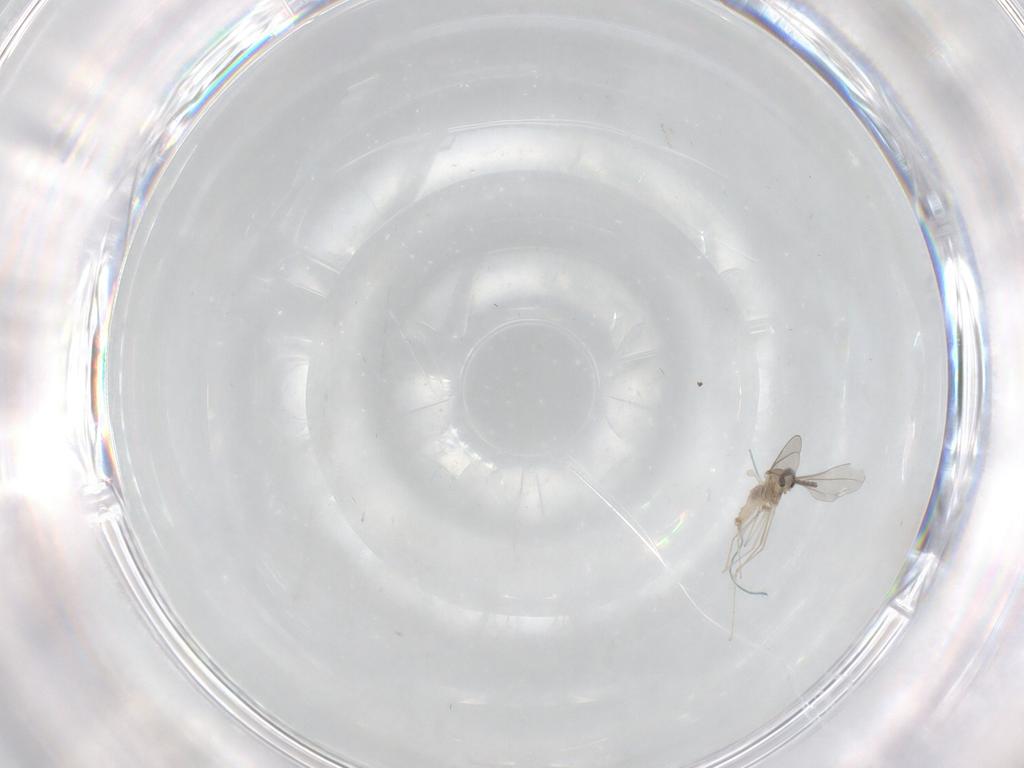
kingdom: Animalia
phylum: Arthropoda
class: Insecta
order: Diptera
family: Cecidomyiidae
